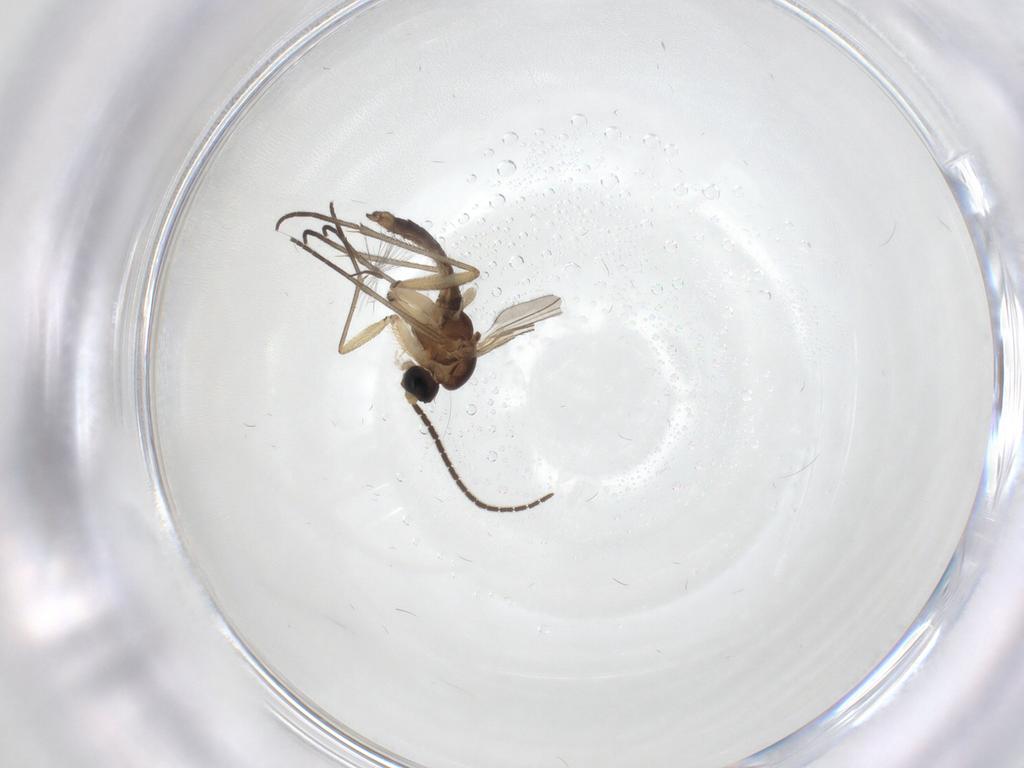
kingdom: Animalia
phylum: Arthropoda
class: Insecta
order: Diptera
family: Sciaridae
